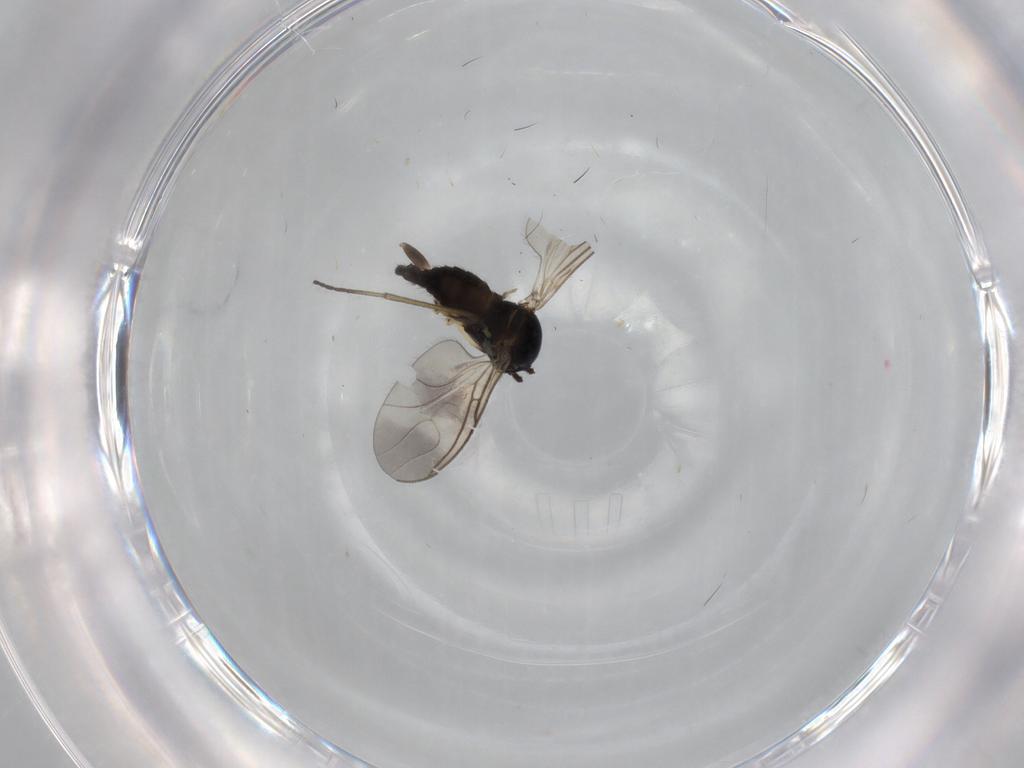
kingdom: Animalia
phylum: Arthropoda
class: Insecta
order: Diptera
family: Sciaridae
